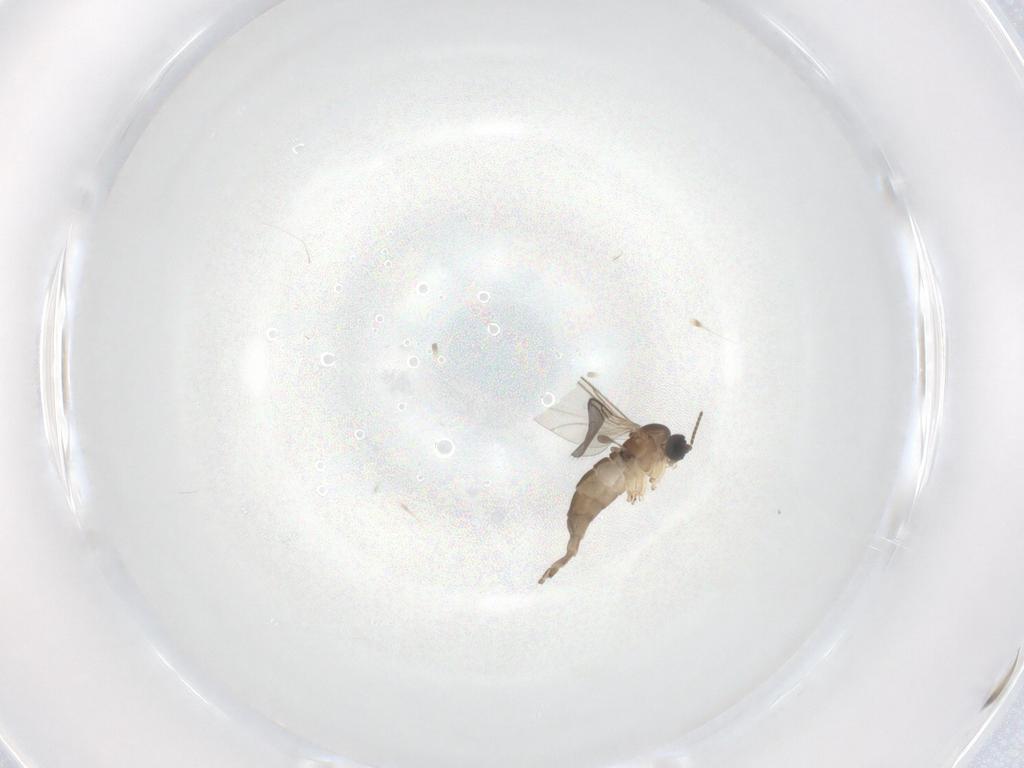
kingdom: Animalia
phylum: Arthropoda
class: Insecta
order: Diptera
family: Sciaridae
